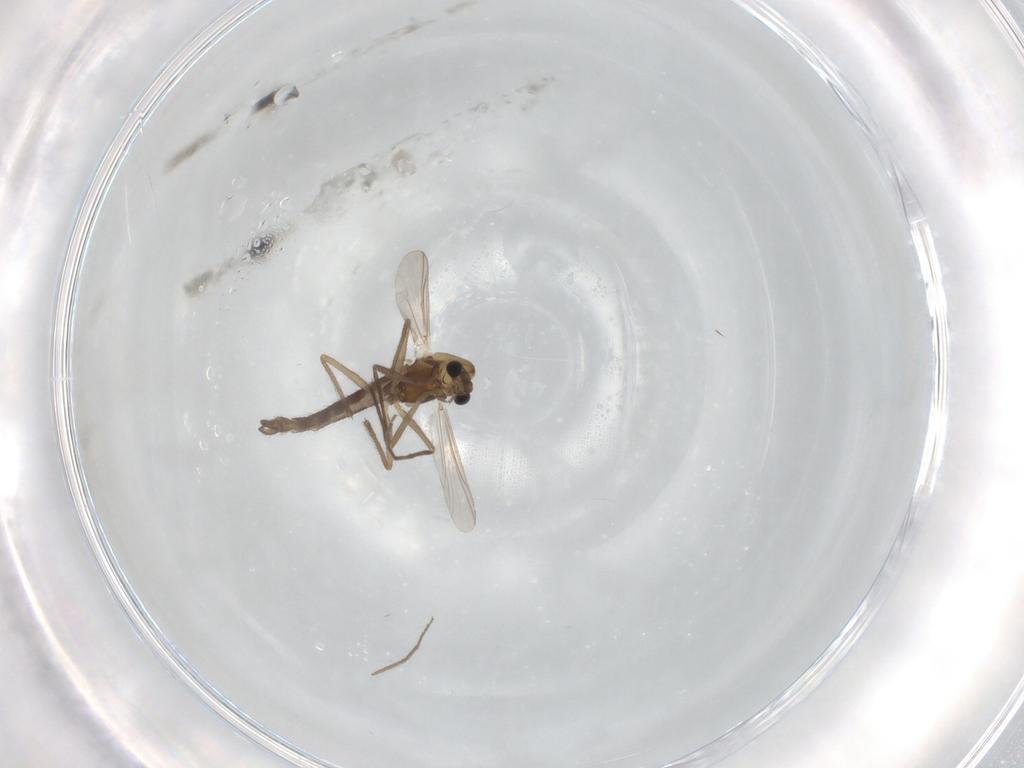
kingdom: Animalia
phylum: Arthropoda
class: Insecta
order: Diptera
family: Chironomidae
